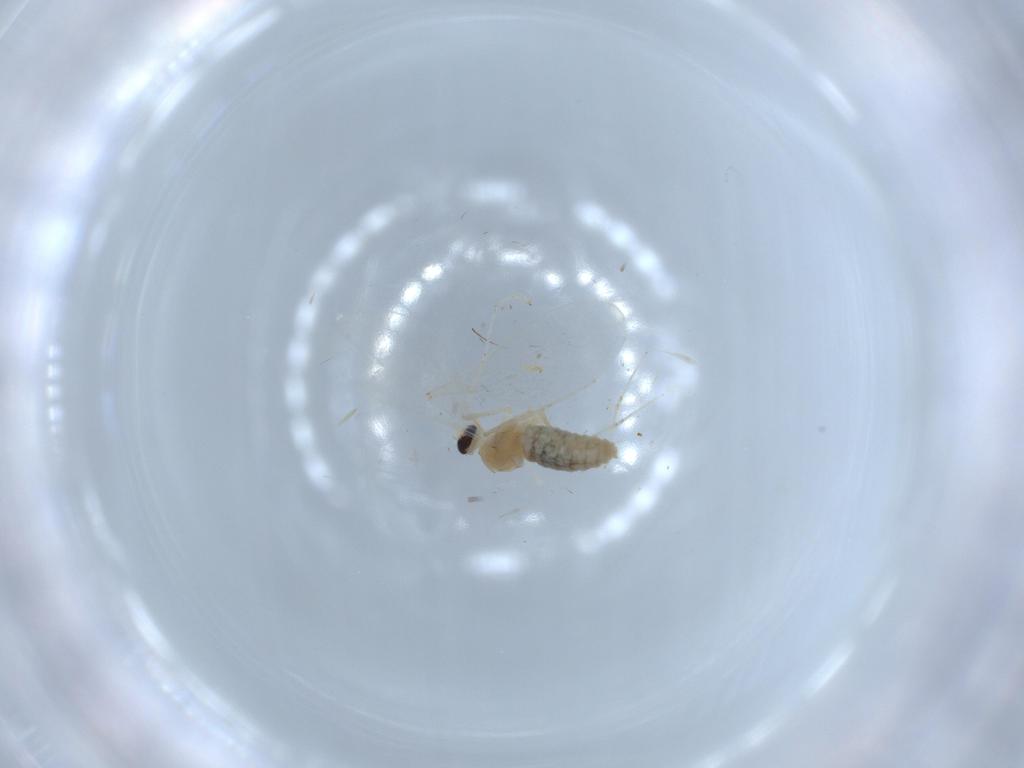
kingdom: Animalia
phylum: Arthropoda
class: Insecta
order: Diptera
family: Cecidomyiidae
